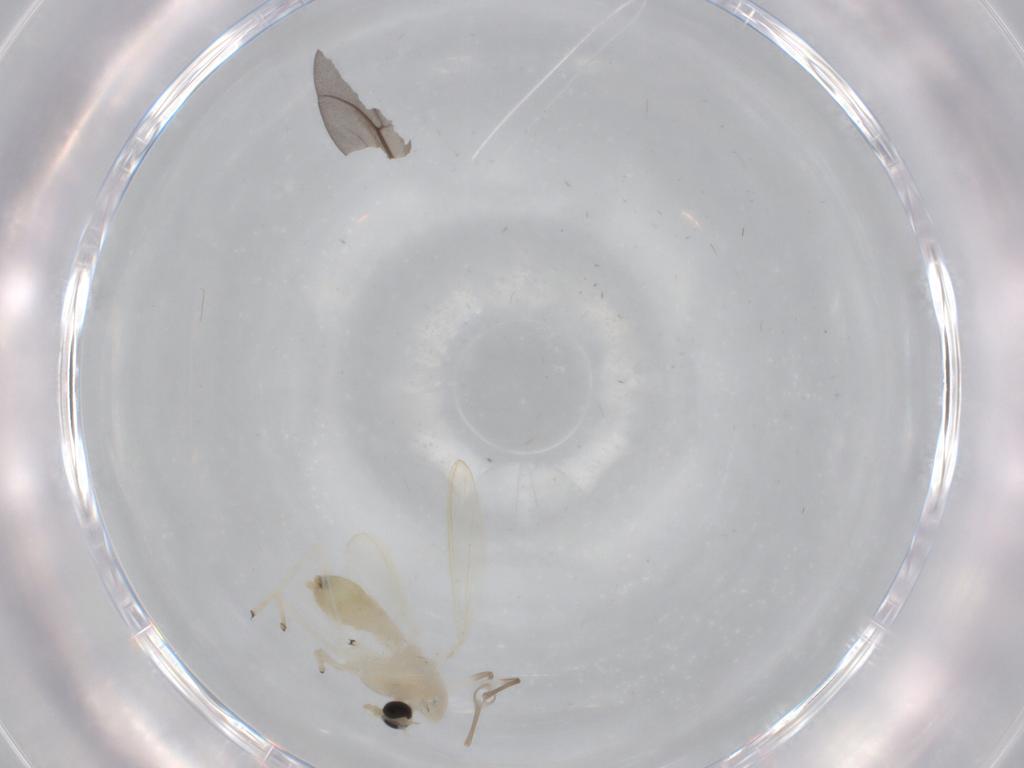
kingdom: Animalia
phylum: Arthropoda
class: Insecta
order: Diptera
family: Chironomidae
